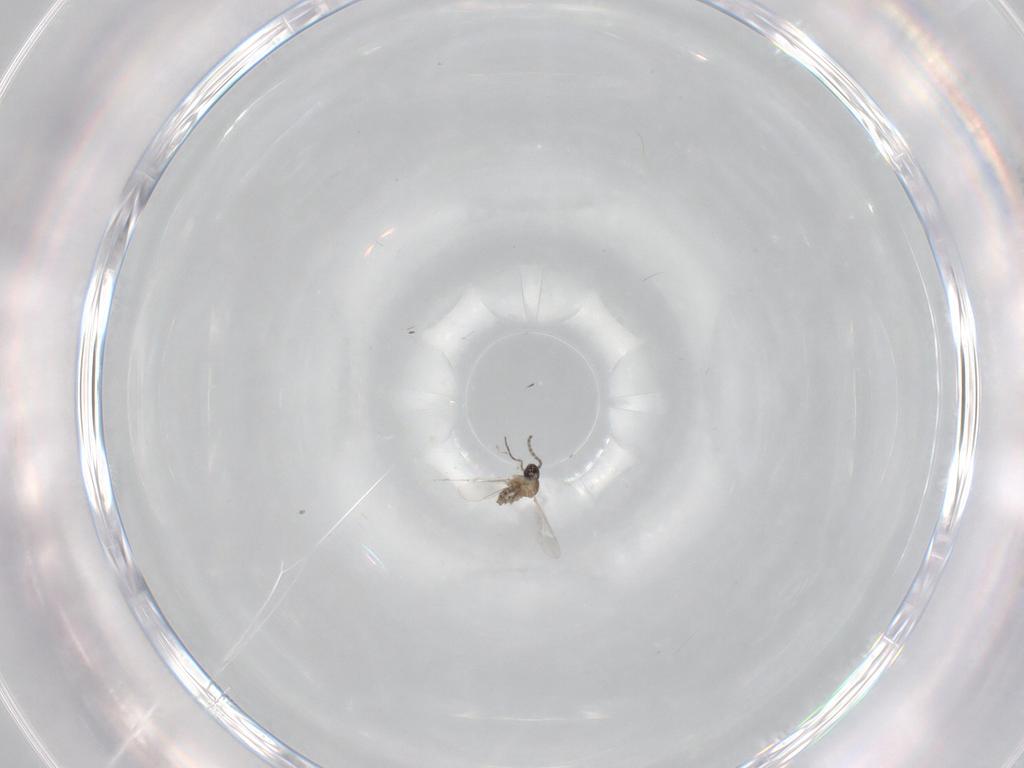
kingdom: Animalia
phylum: Arthropoda
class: Insecta
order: Diptera
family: Cecidomyiidae
